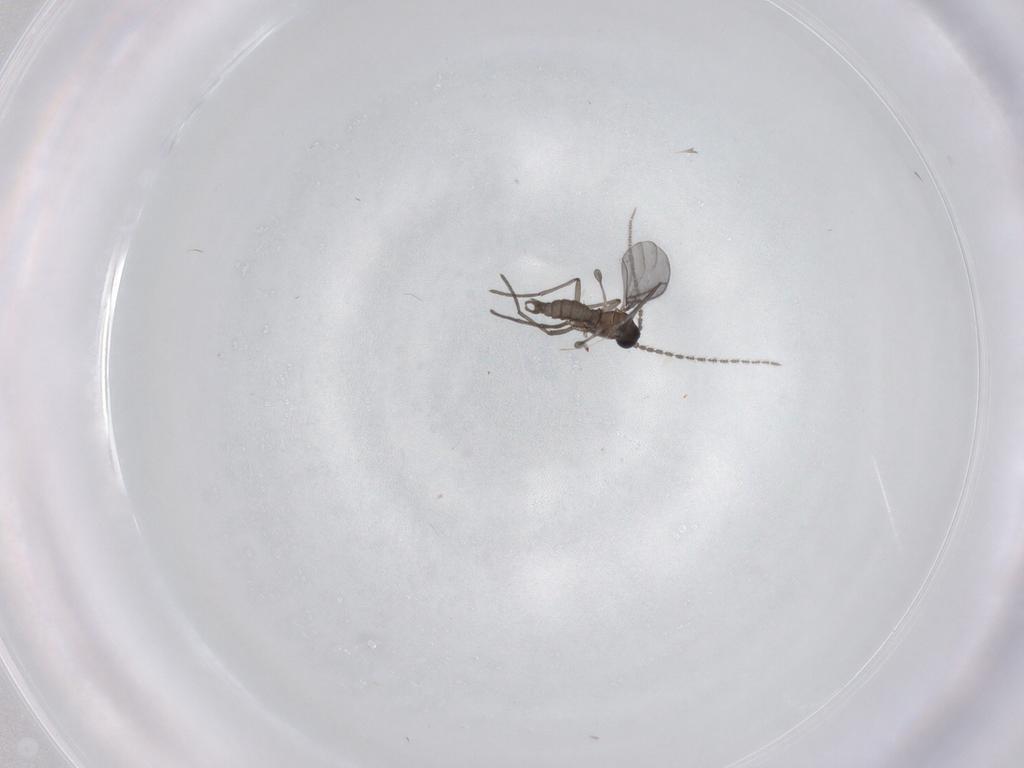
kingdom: Animalia
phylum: Arthropoda
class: Insecta
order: Diptera
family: Sciaridae
